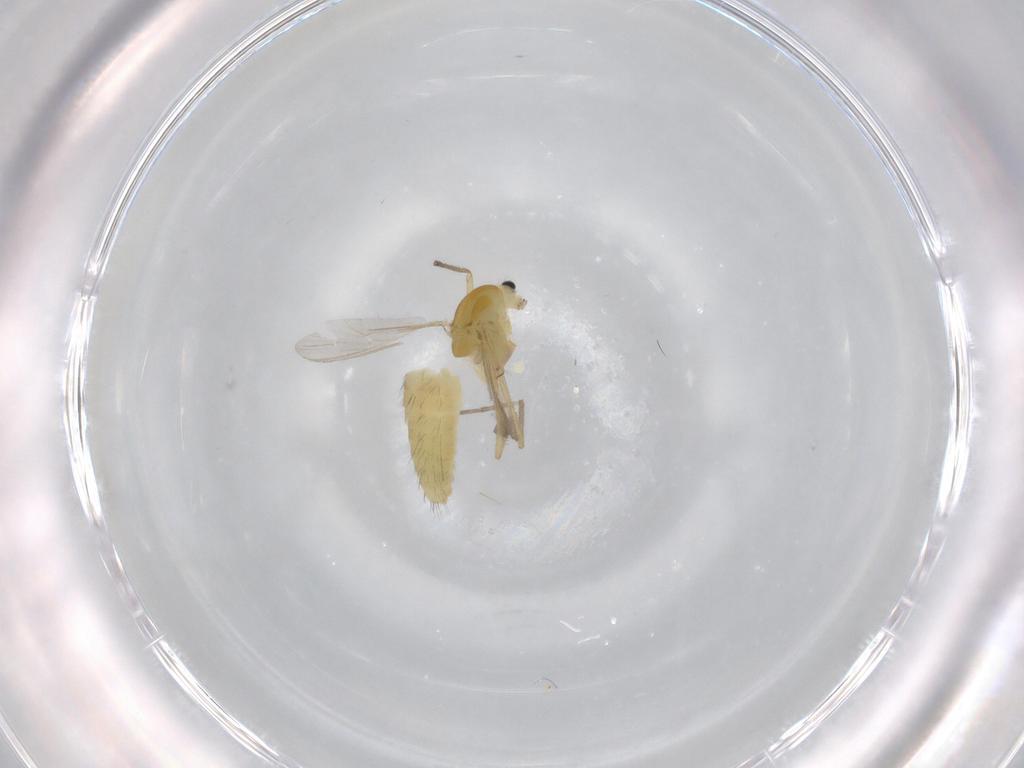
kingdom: Animalia
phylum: Arthropoda
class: Insecta
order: Diptera
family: Chironomidae
